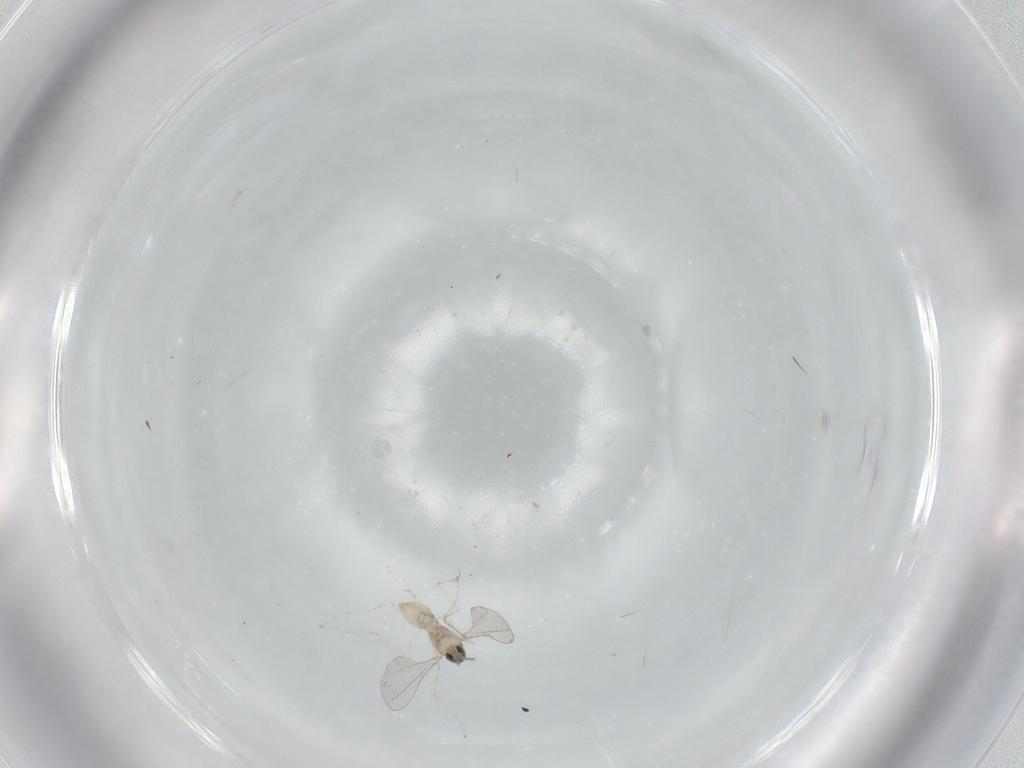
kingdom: Animalia
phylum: Arthropoda
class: Insecta
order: Diptera
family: Cecidomyiidae
